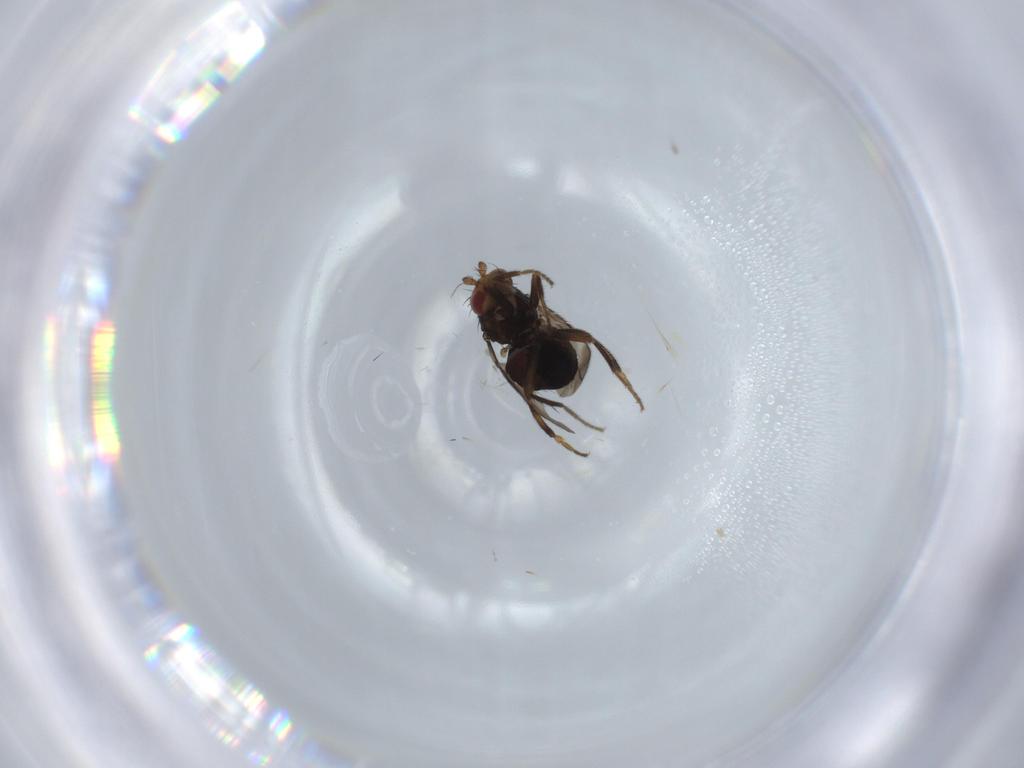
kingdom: Animalia
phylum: Arthropoda
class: Insecta
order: Diptera
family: Sphaeroceridae
